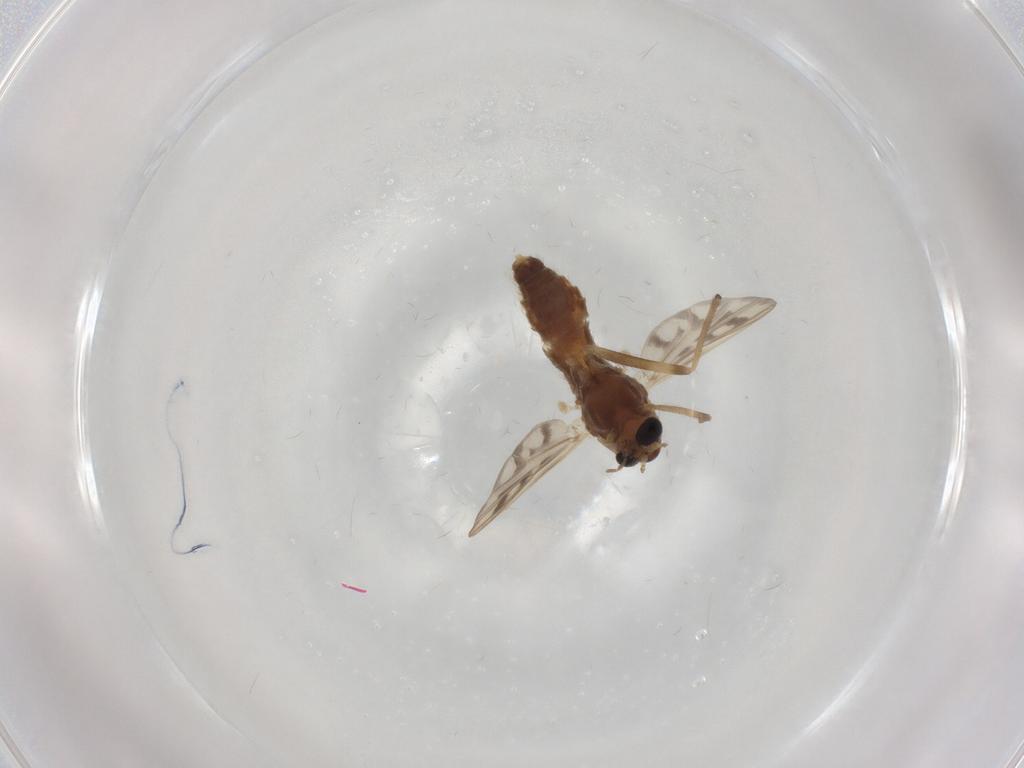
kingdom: Animalia
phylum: Arthropoda
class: Insecta
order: Diptera
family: Chironomidae
